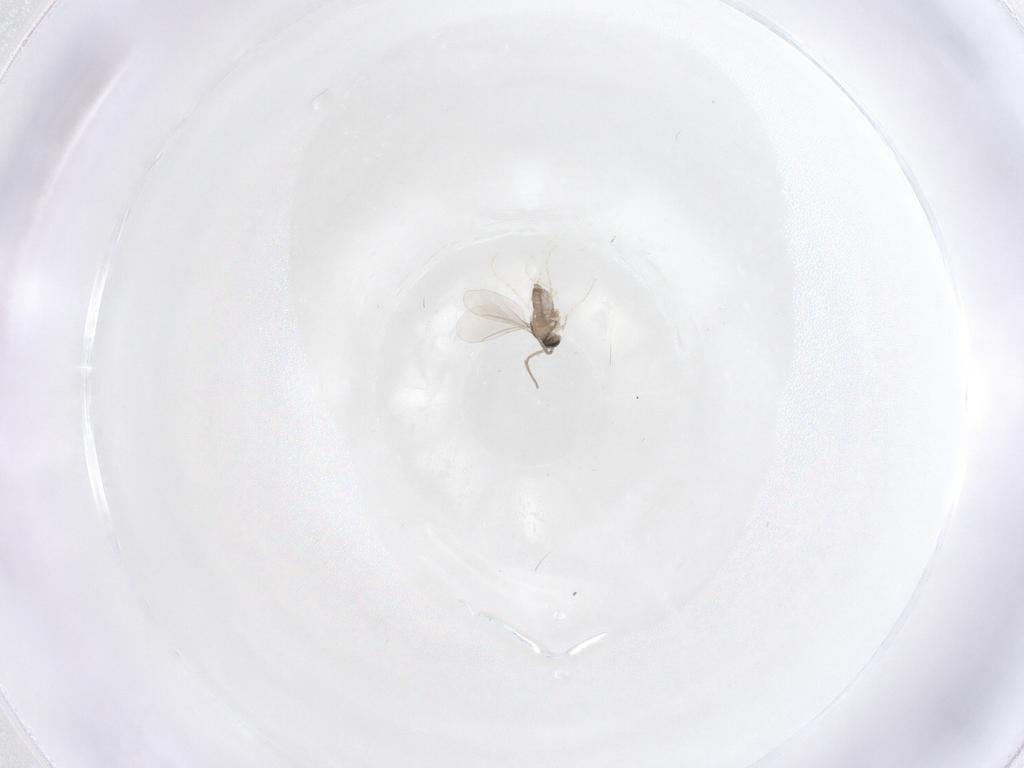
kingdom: Animalia
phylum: Arthropoda
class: Insecta
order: Diptera
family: Cecidomyiidae
